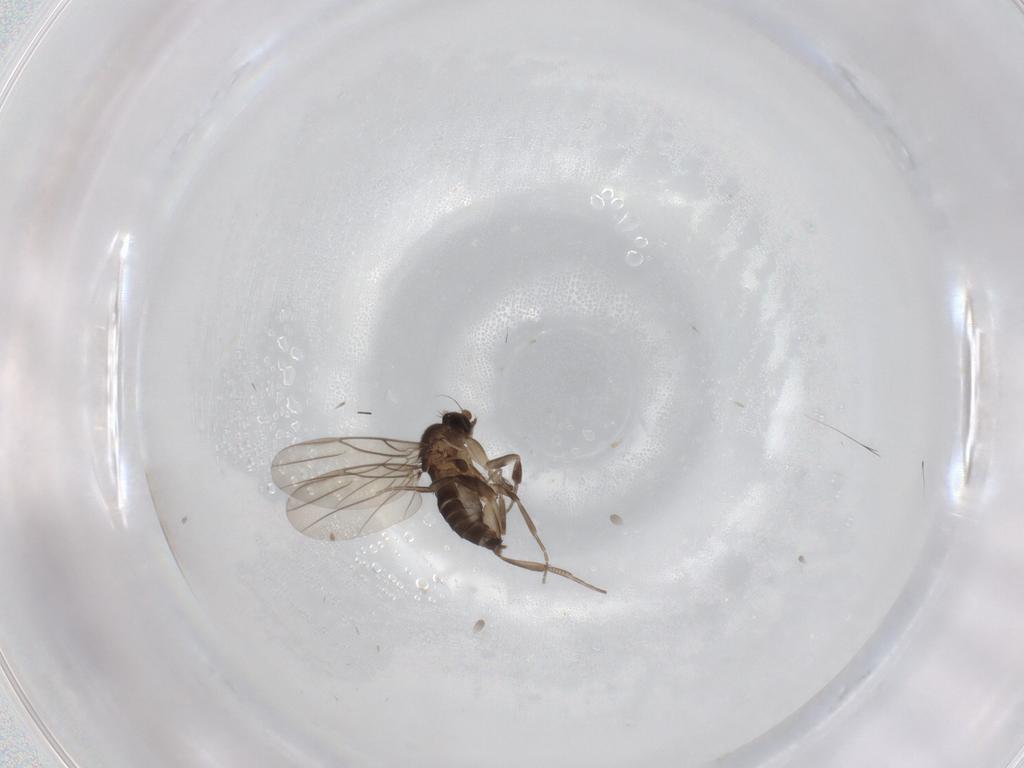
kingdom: Animalia
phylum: Arthropoda
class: Insecta
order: Diptera
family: Phoridae
